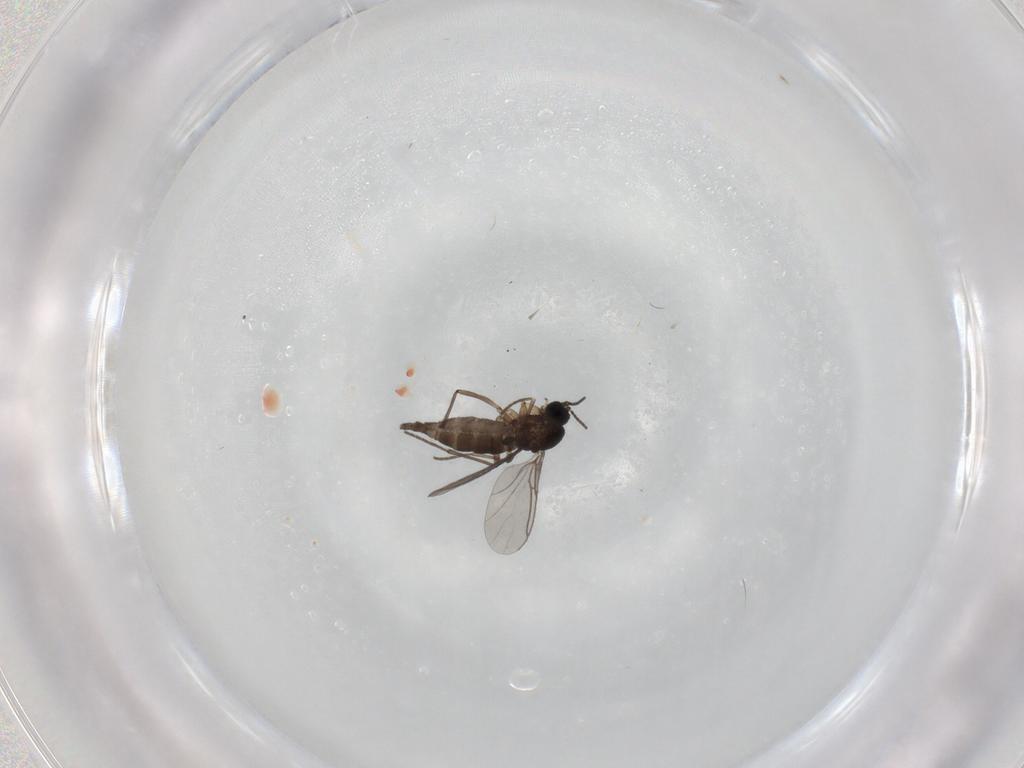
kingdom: Animalia
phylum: Arthropoda
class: Insecta
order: Diptera
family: Sciaridae
